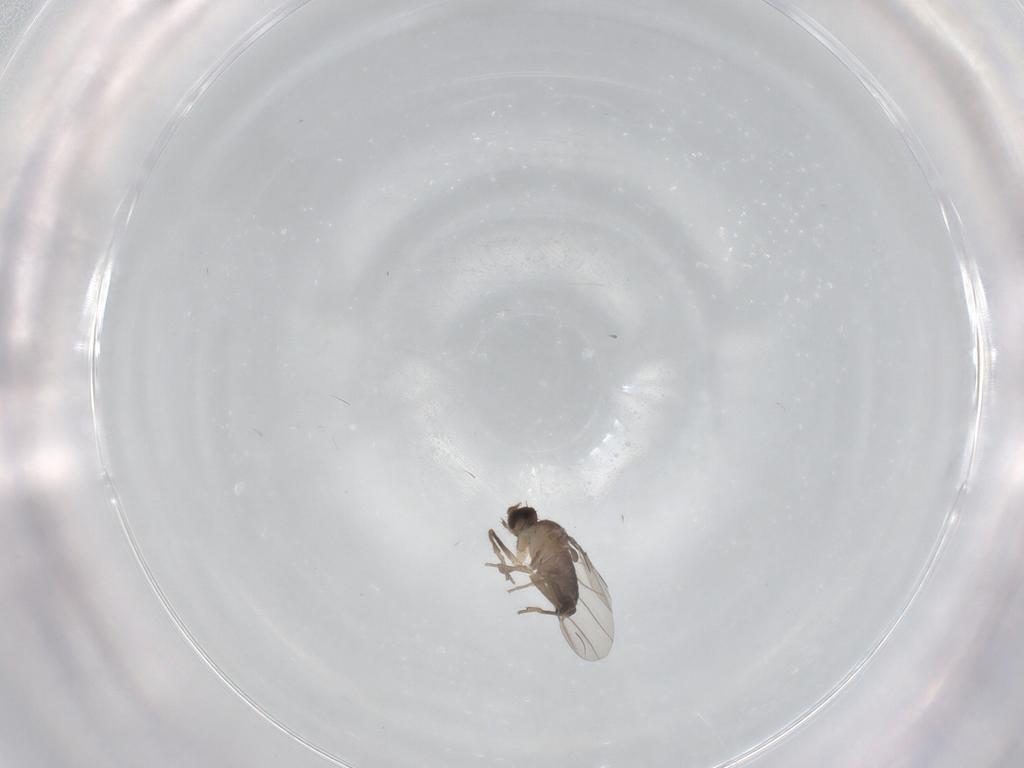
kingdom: Animalia
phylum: Arthropoda
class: Insecta
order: Diptera
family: Phoridae
